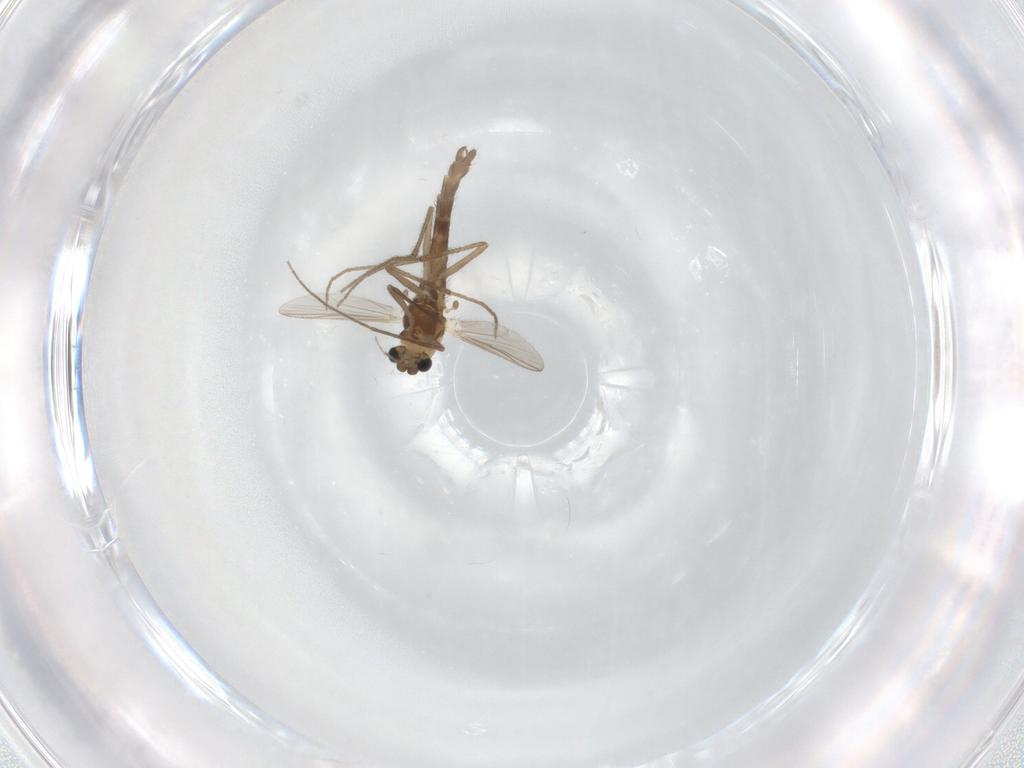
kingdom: Animalia
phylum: Arthropoda
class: Insecta
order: Diptera
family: Chironomidae
